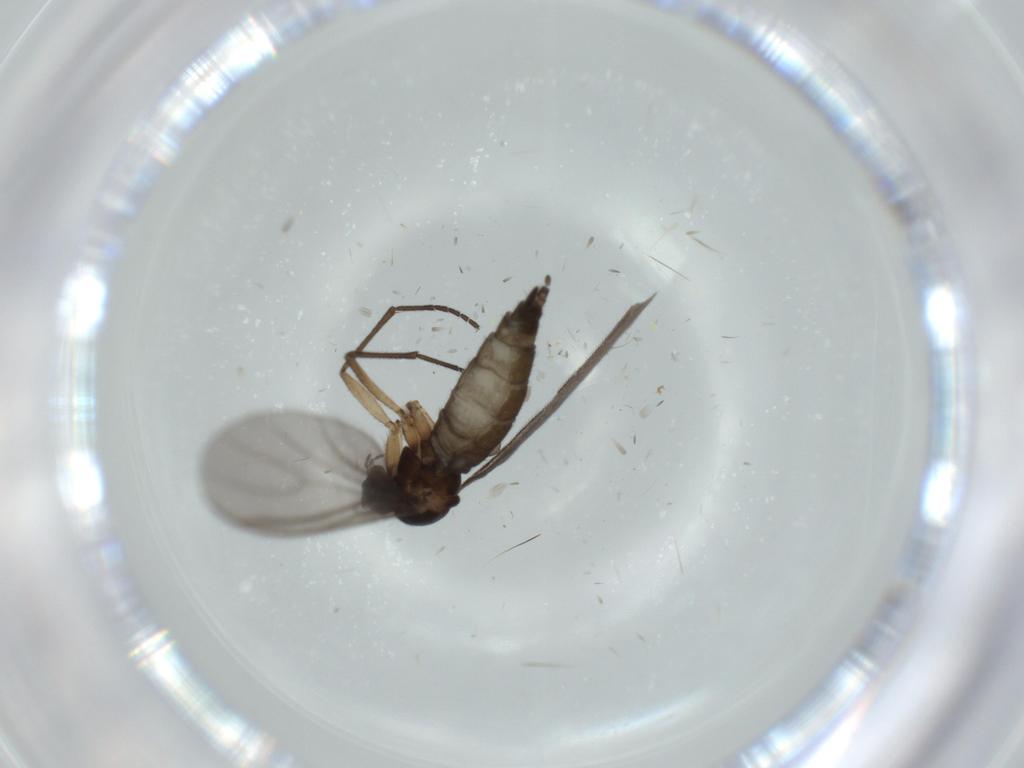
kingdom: Animalia
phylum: Arthropoda
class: Insecta
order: Diptera
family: Sciaridae
